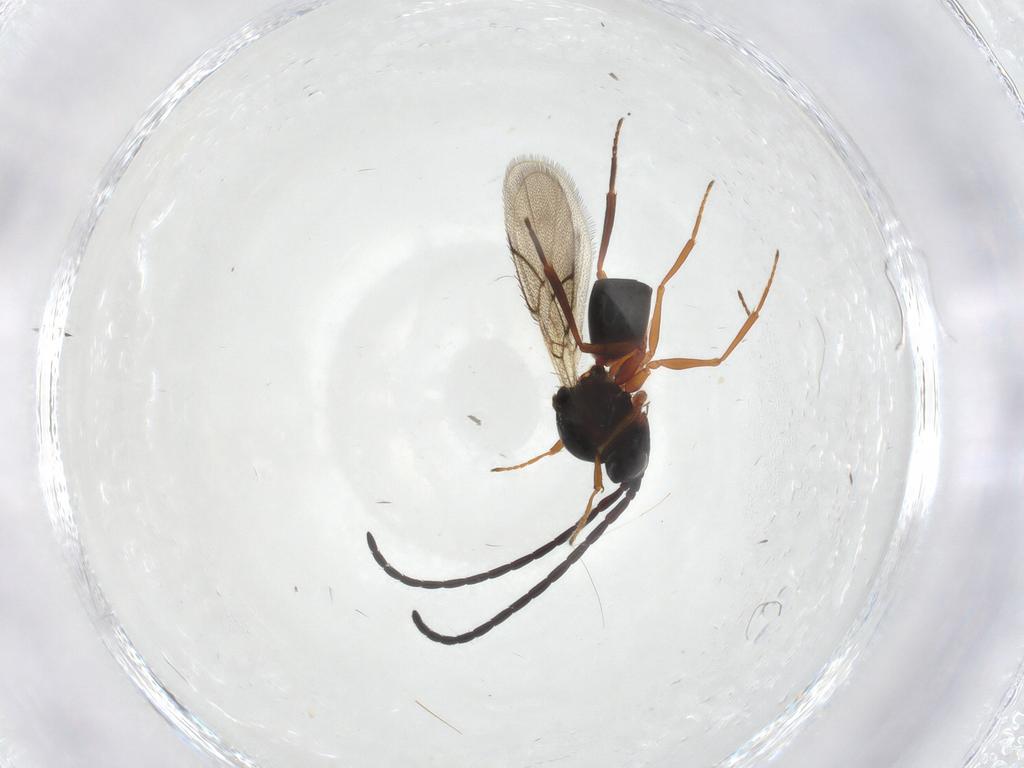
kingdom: Animalia
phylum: Arthropoda
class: Insecta
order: Hymenoptera
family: Figitidae
